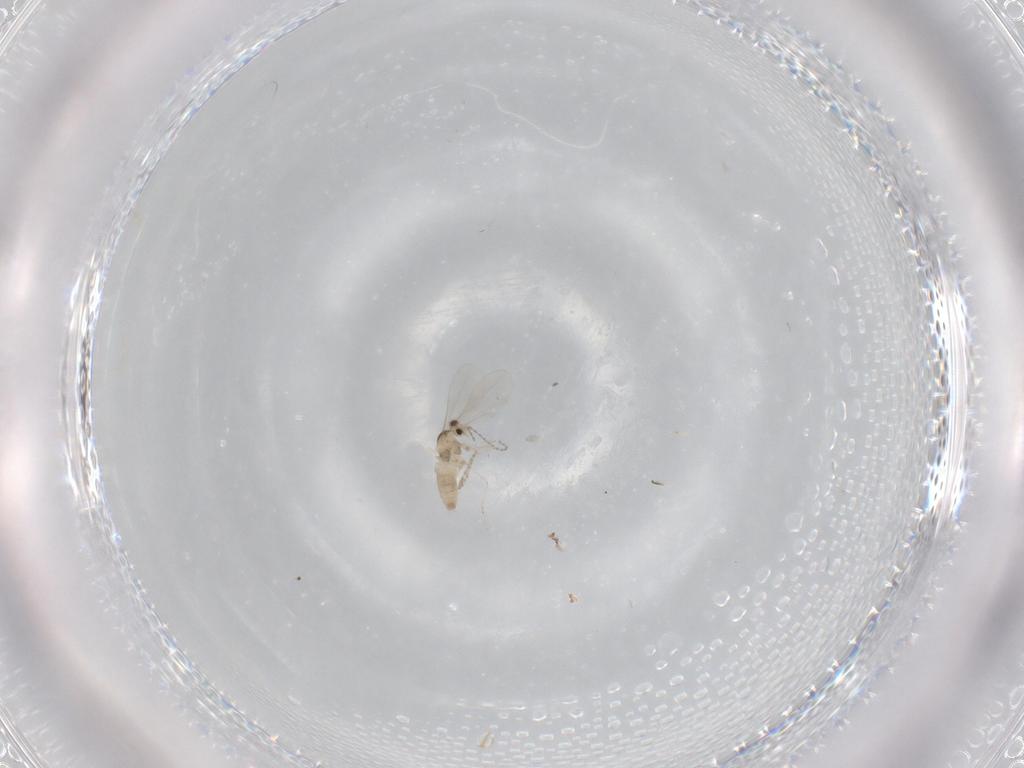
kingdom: Animalia
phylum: Arthropoda
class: Insecta
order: Diptera
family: Cecidomyiidae
